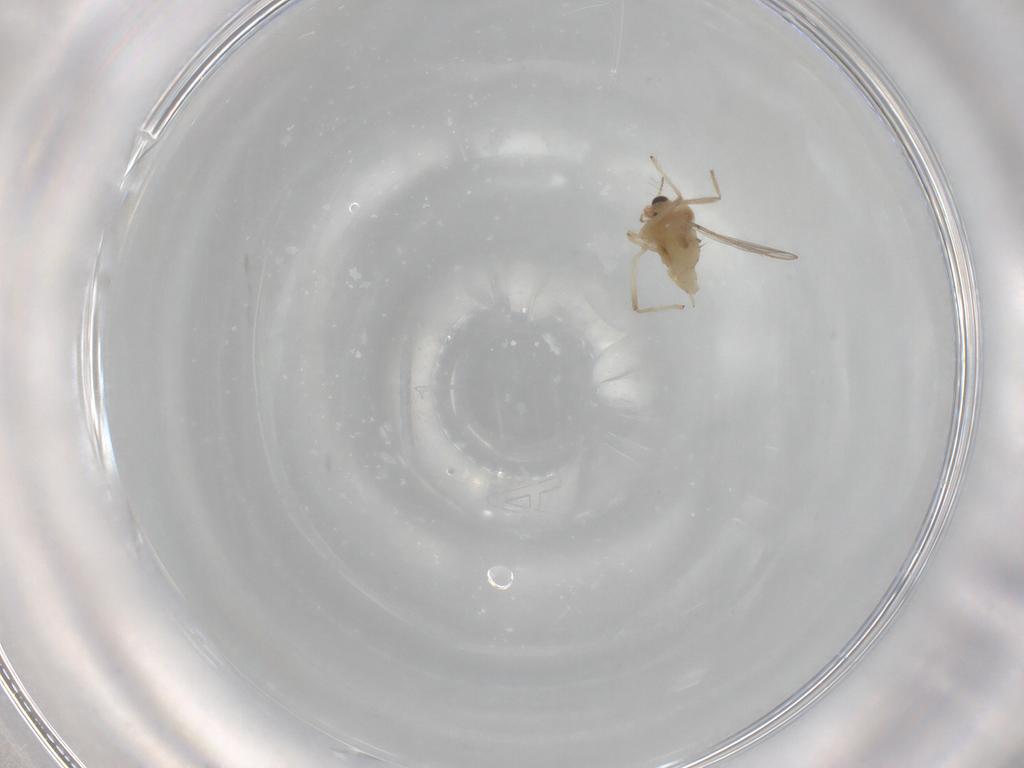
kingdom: Animalia
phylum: Arthropoda
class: Insecta
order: Diptera
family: Chironomidae
